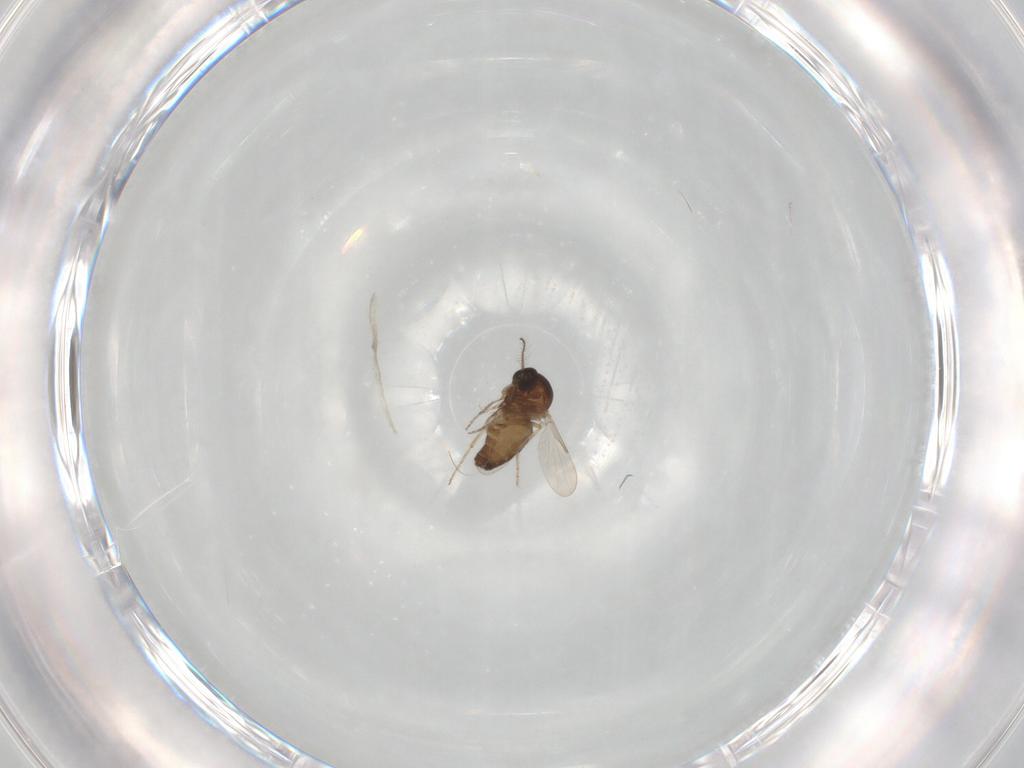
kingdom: Animalia
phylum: Arthropoda
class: Insecta
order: Diptera
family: Ceratopogonidae
